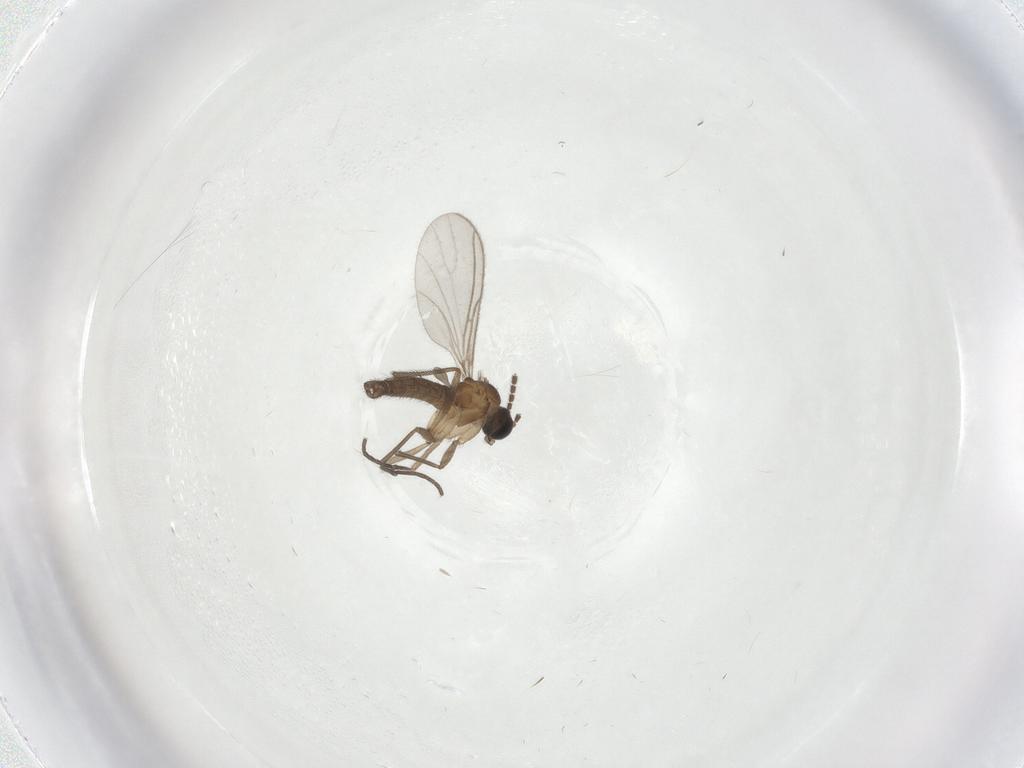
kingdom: Animalia
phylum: Arthropoda
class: Insecta
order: Diptera
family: Sciaridae
